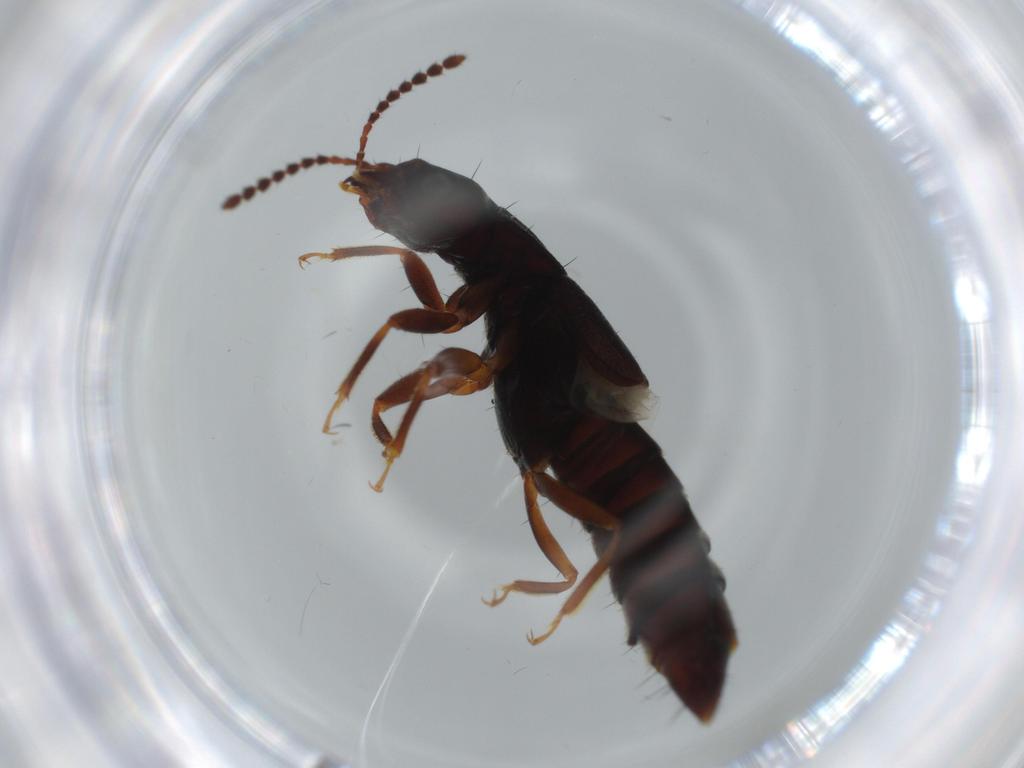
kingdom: Animalia
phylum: Arthropoda
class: Insecta
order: Coleoptera
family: Staphylinidae
